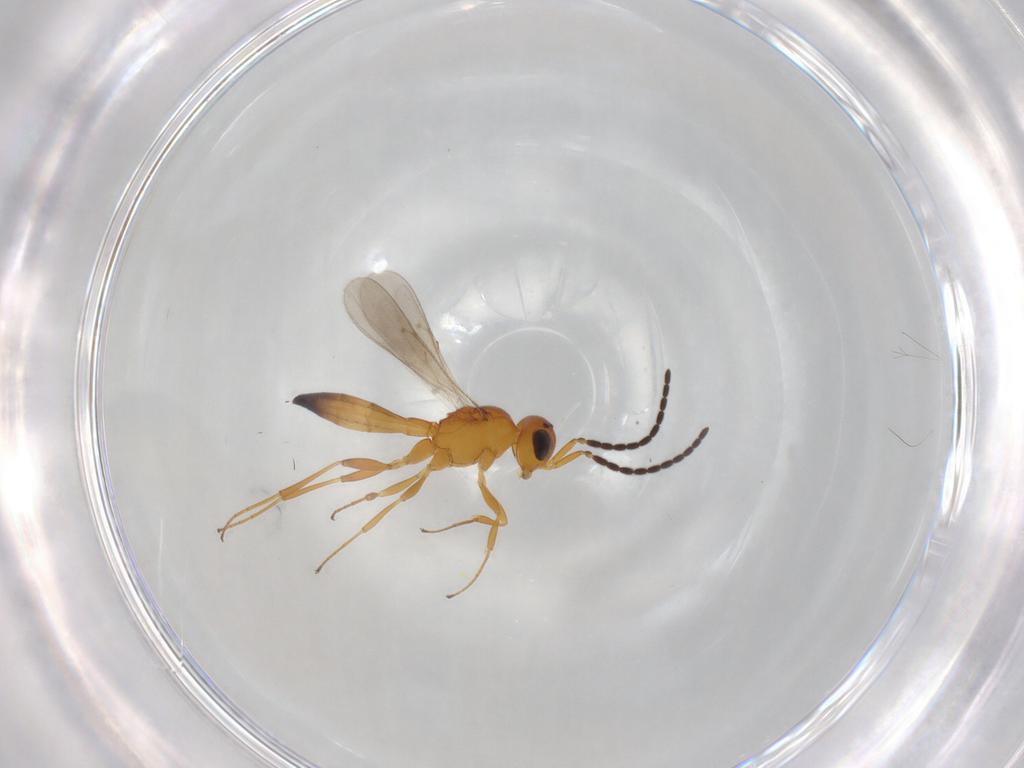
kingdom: Animalia
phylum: Arthropoda
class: Insecta
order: Hymenoptera
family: Scelionidae
